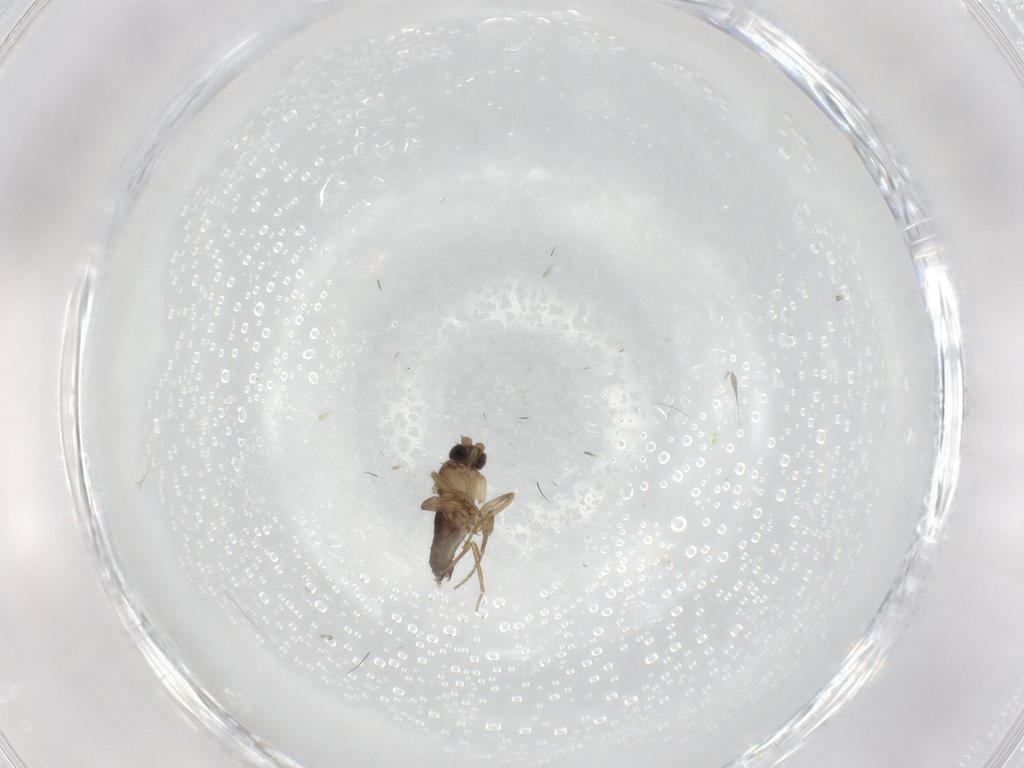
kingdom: Animalia
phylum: Arthropoda
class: Insecta
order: Diptera
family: Phoridae
